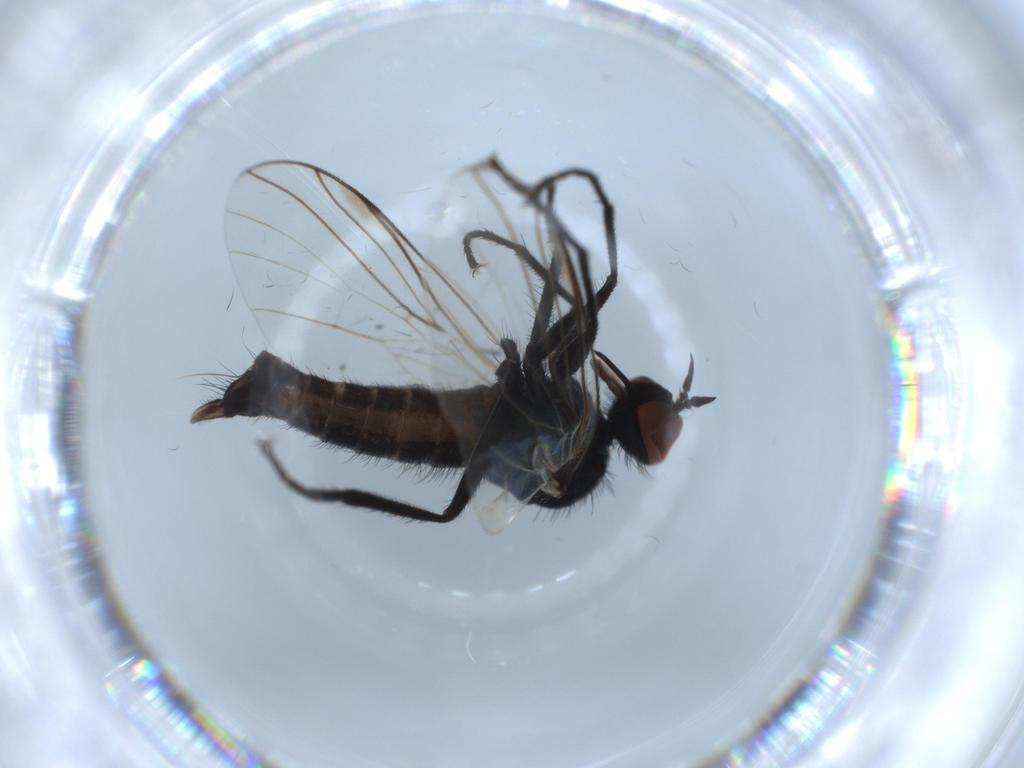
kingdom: Animalia
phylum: Arthropoda
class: Insecta
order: Diptera
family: Empididae
